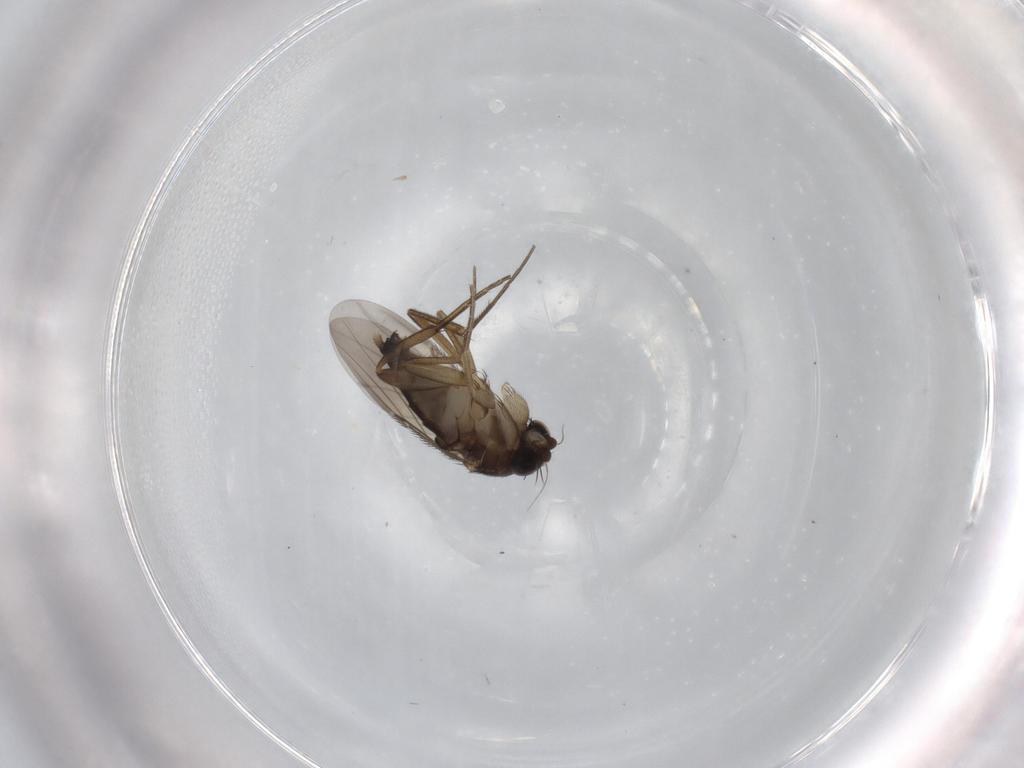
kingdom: Animalia
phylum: Arthropoda
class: Insecta
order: Diptera
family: Phoridae
